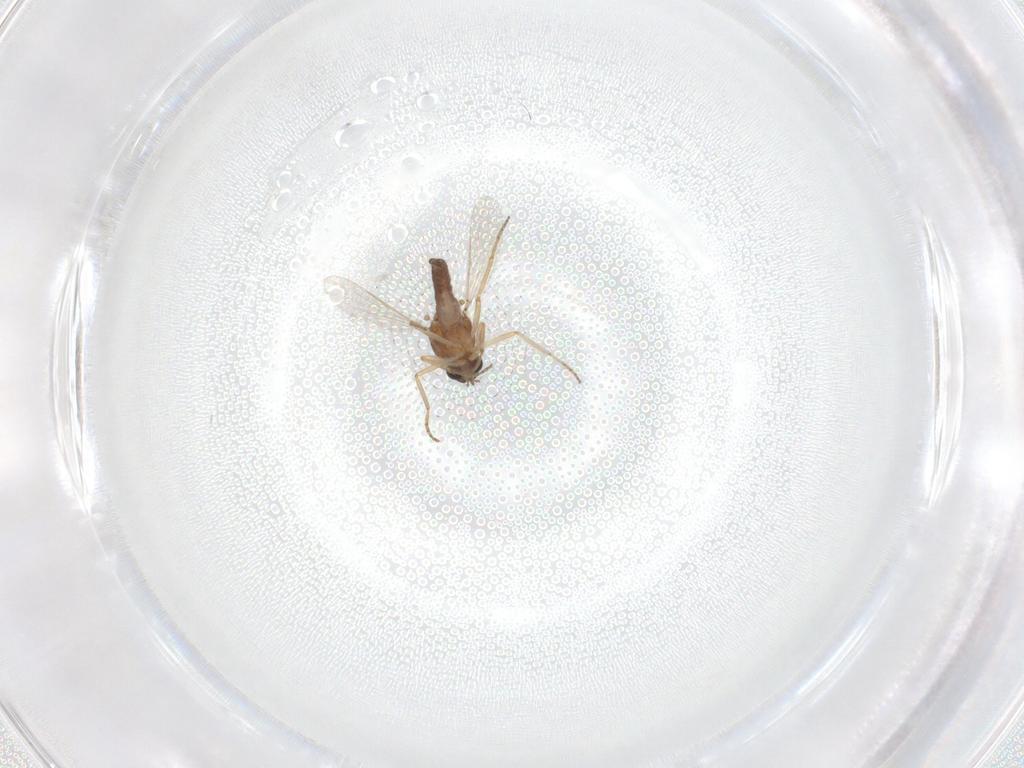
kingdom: Animalia
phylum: Arthropoda
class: Insecta
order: Diptera
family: Ceratopogonidae
